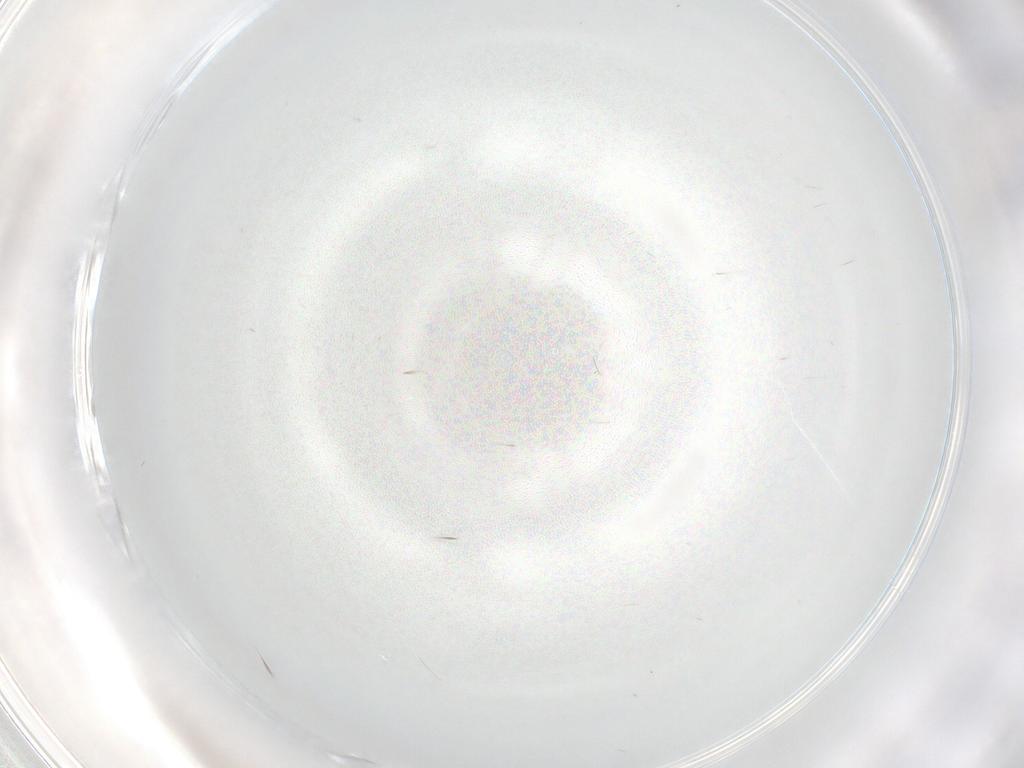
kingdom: Animalia
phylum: Arthropoda
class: Insecta
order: Diptera
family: Cecidomyiidae
